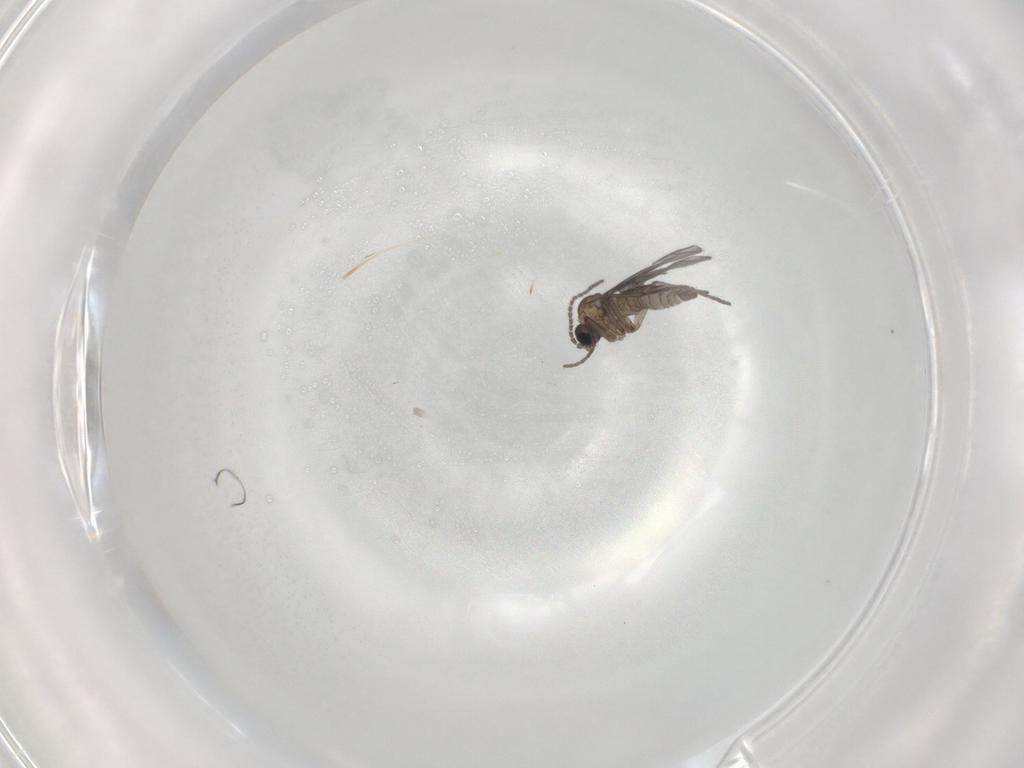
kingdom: Animalia
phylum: Arthropoda
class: Insecta
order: Diptera
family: Sciaridae
